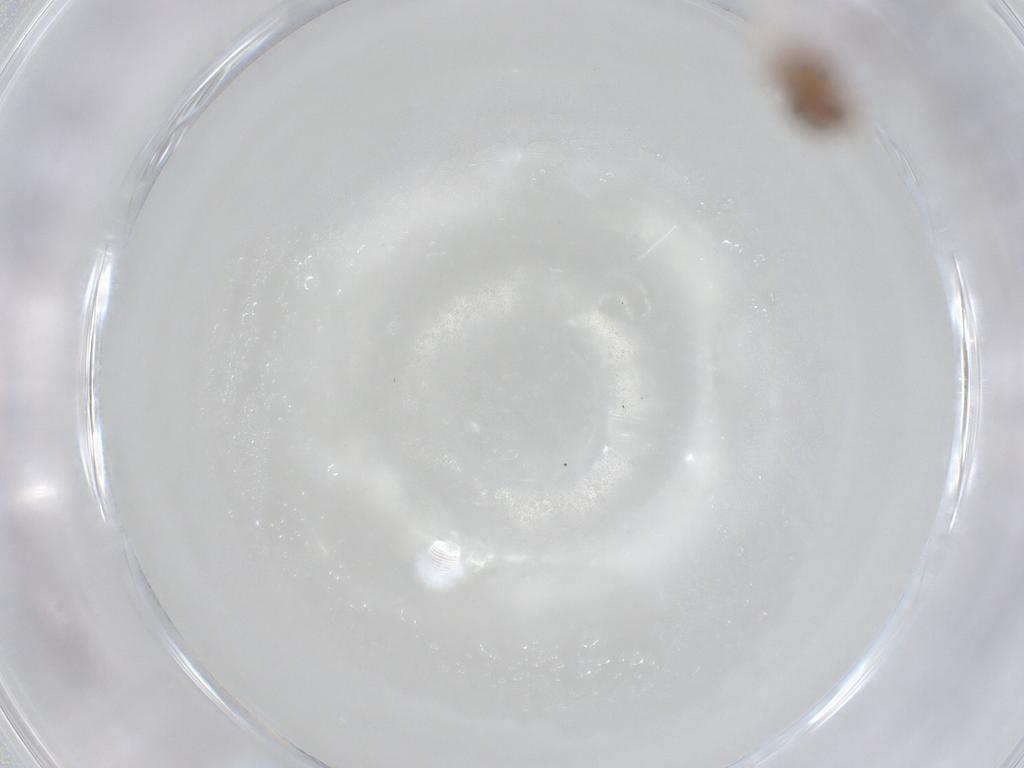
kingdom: Animalia
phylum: Arthropoda
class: Insecta
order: Neuroptera
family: Coniopterygidae
